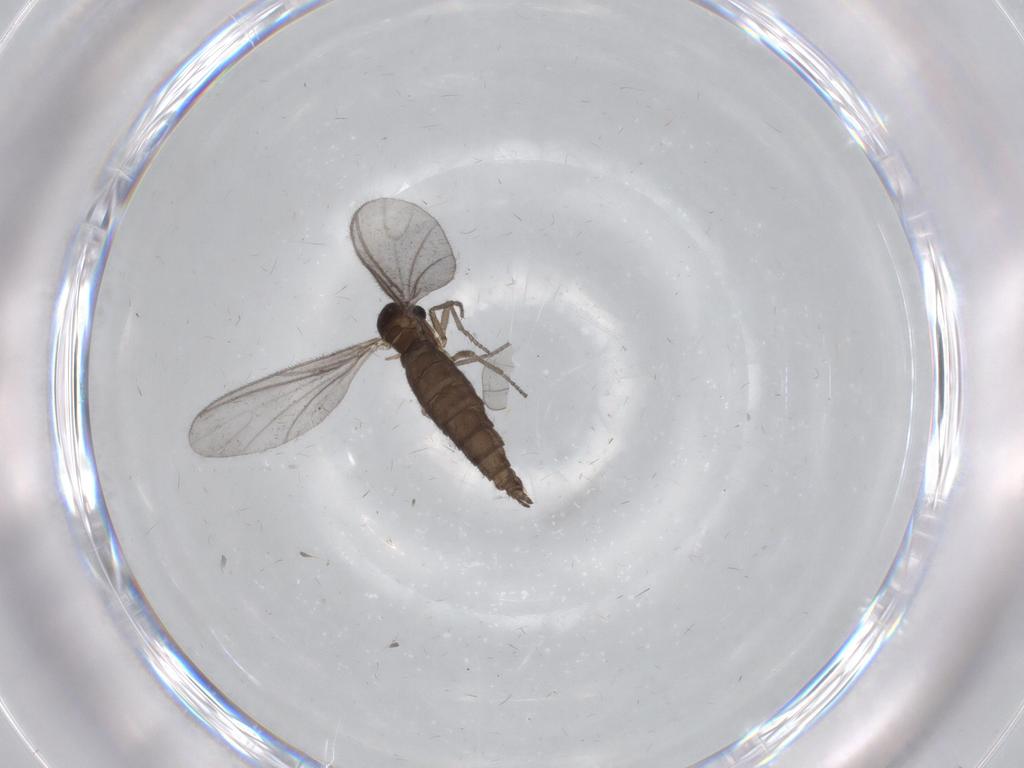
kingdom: Animalia
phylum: Arthropoda
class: Insecta
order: Diptera
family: Sciaridae
